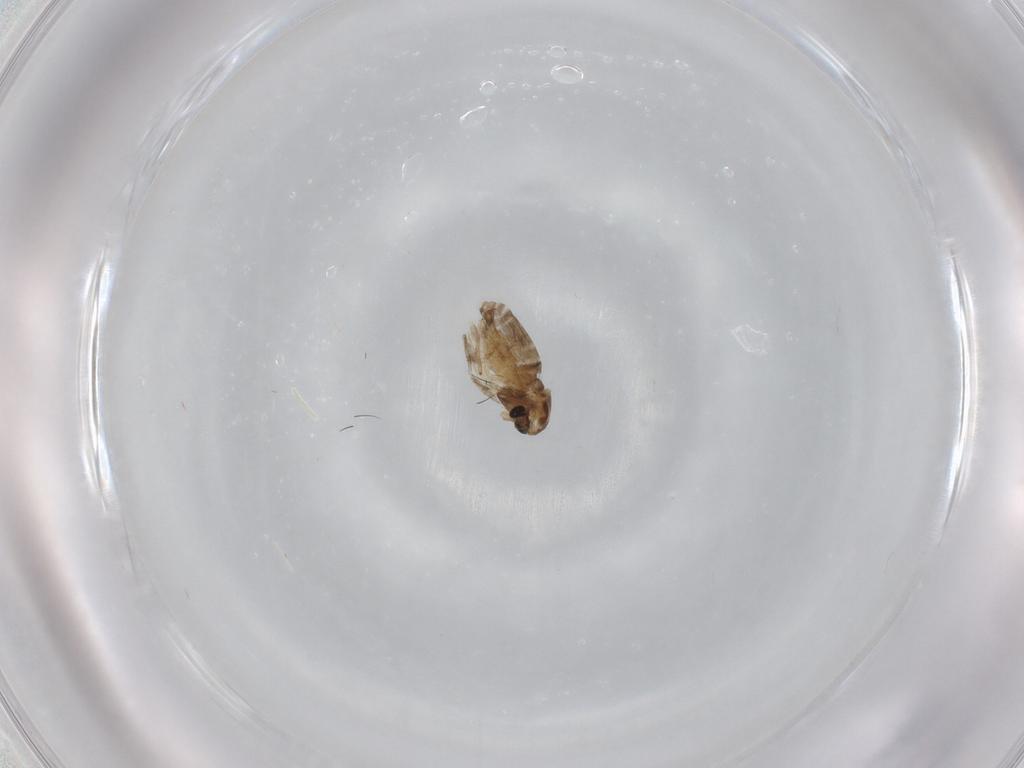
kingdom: Animalia
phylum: Arthropoda
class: Insecta
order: Diptera
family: Chironomidae
